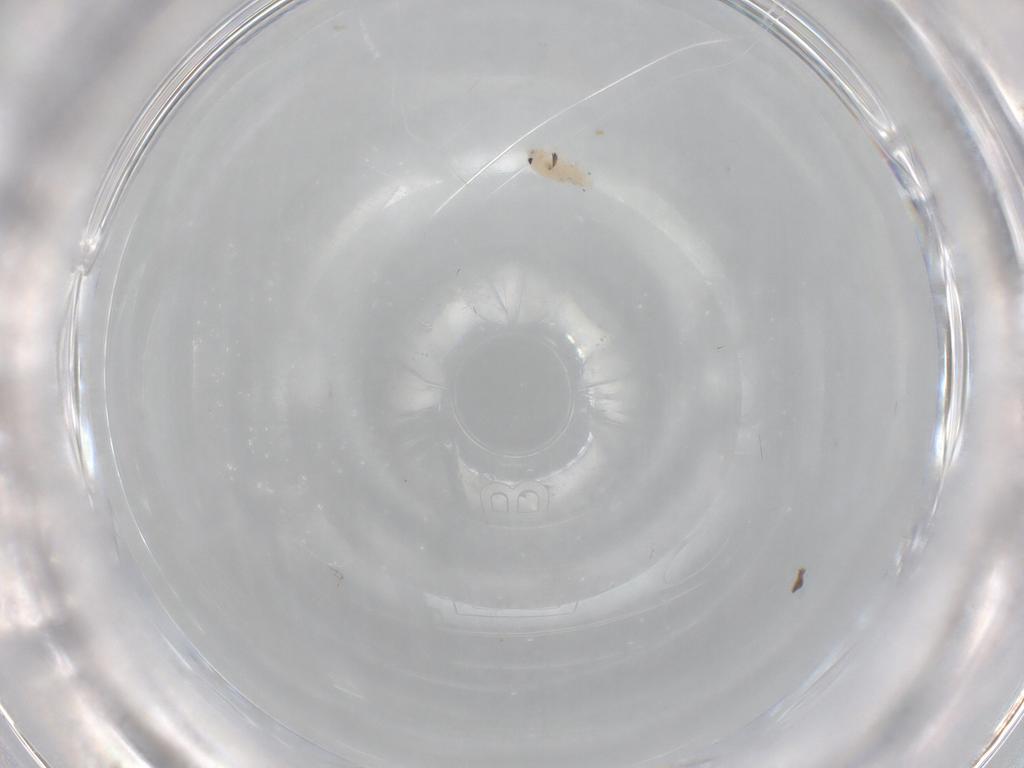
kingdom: Animalia
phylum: Arthropoda
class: Collembola
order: Entomobryomorpha
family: Entomobryidae
